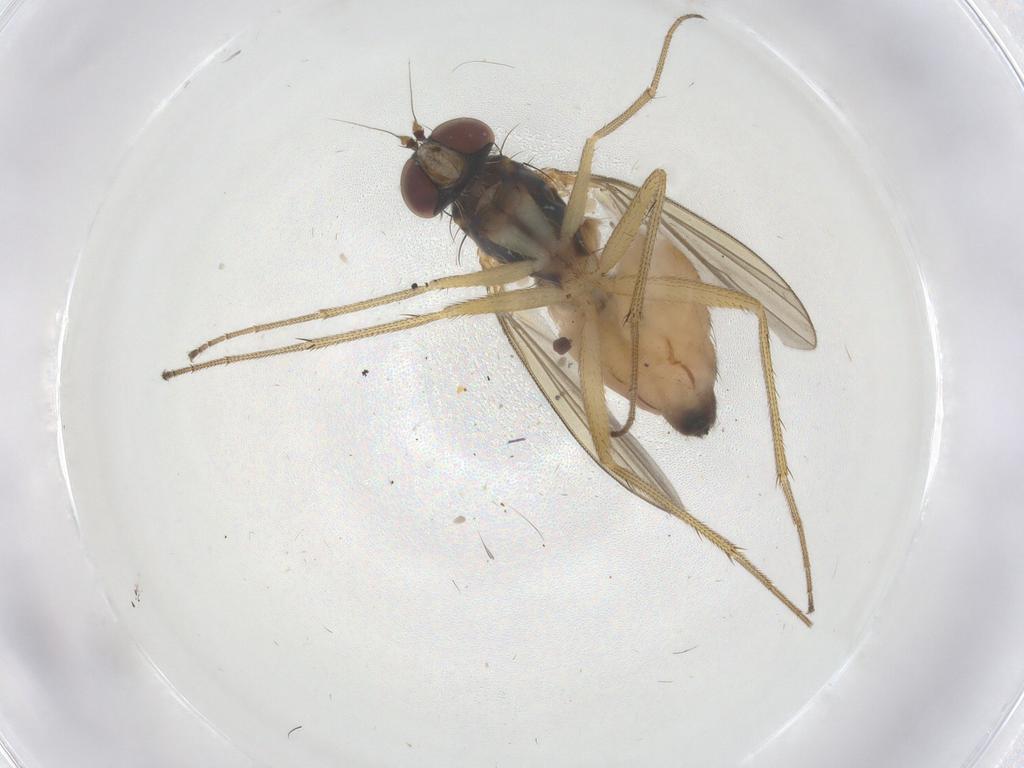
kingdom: Animalia
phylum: Arthropoda
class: Insecta
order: Diptera
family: Dolichopodidae
